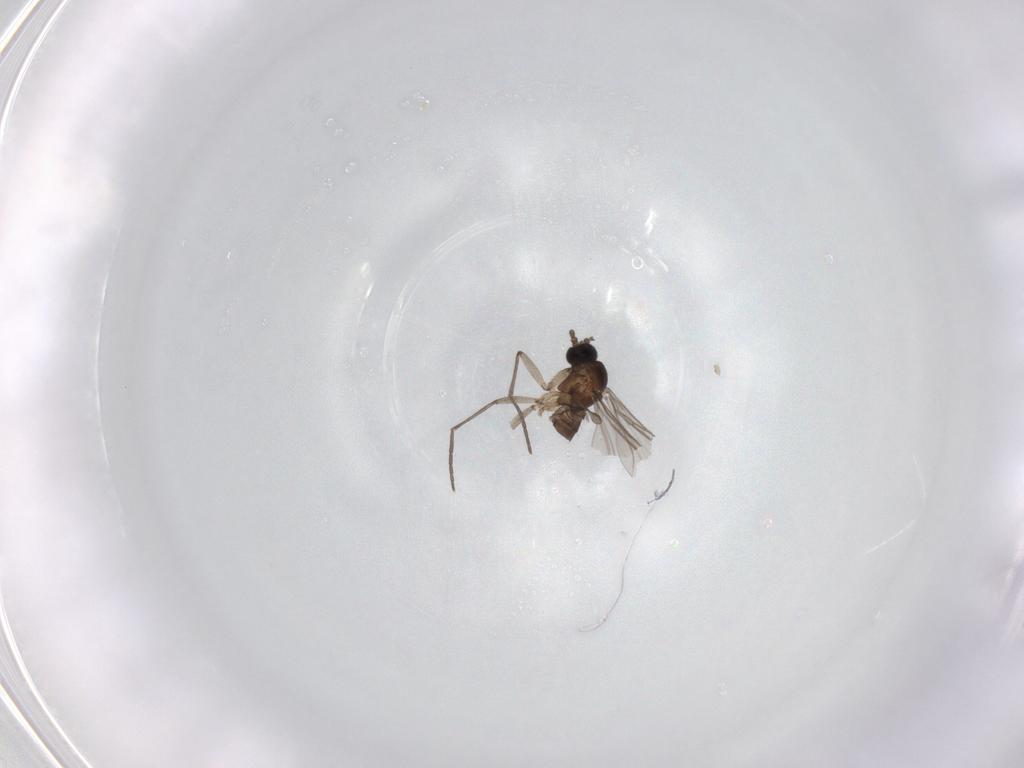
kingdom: Animalia
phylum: Arthropoda
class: Insecta
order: Diptera
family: Sciaridae
